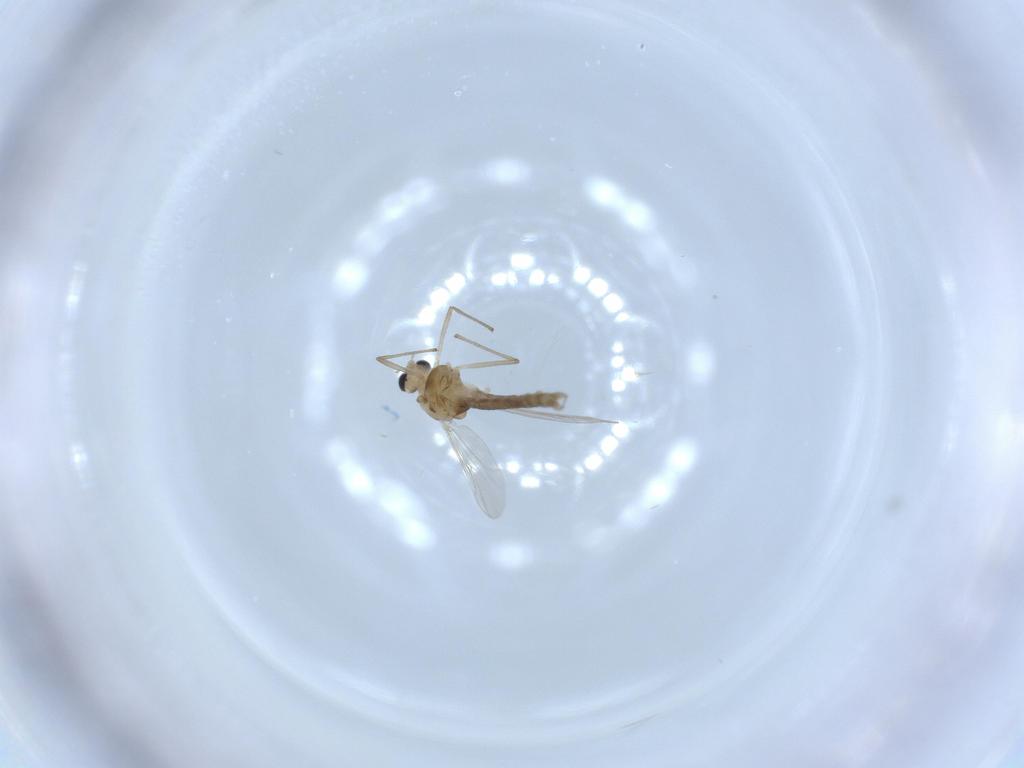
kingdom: Animalia
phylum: Arthropoda
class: Insecta
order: Diptera
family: Chironomidae
